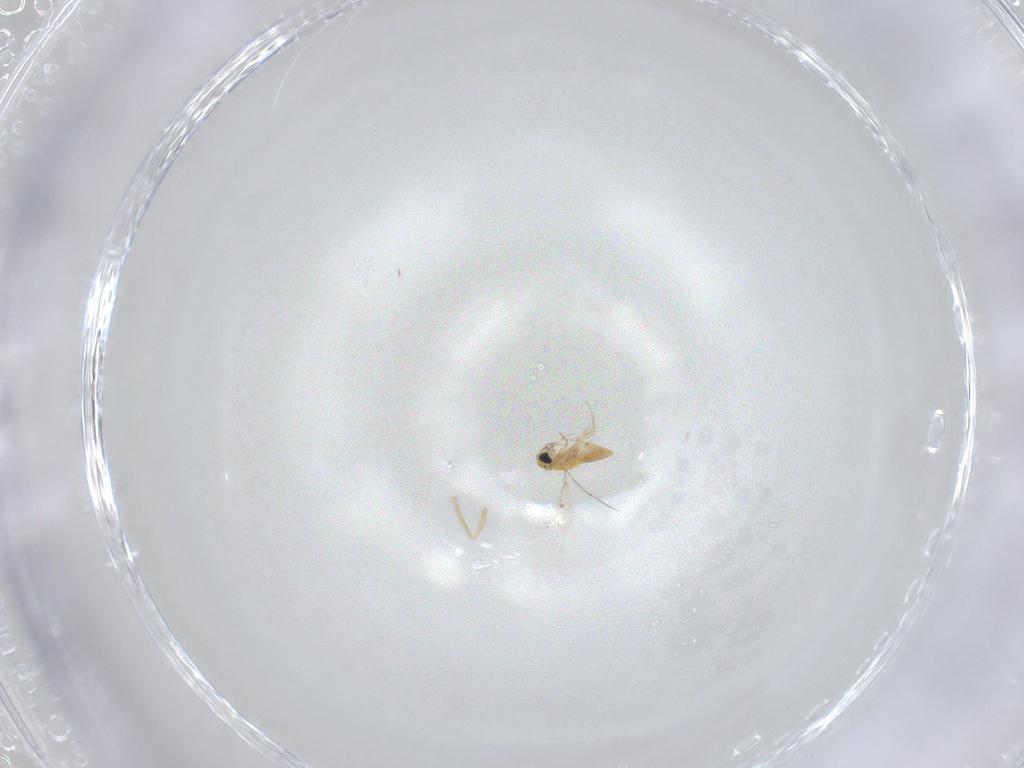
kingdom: Animalia
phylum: Arthropoda
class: Insecta
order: Hymenoptera
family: Trichogrammatidae
